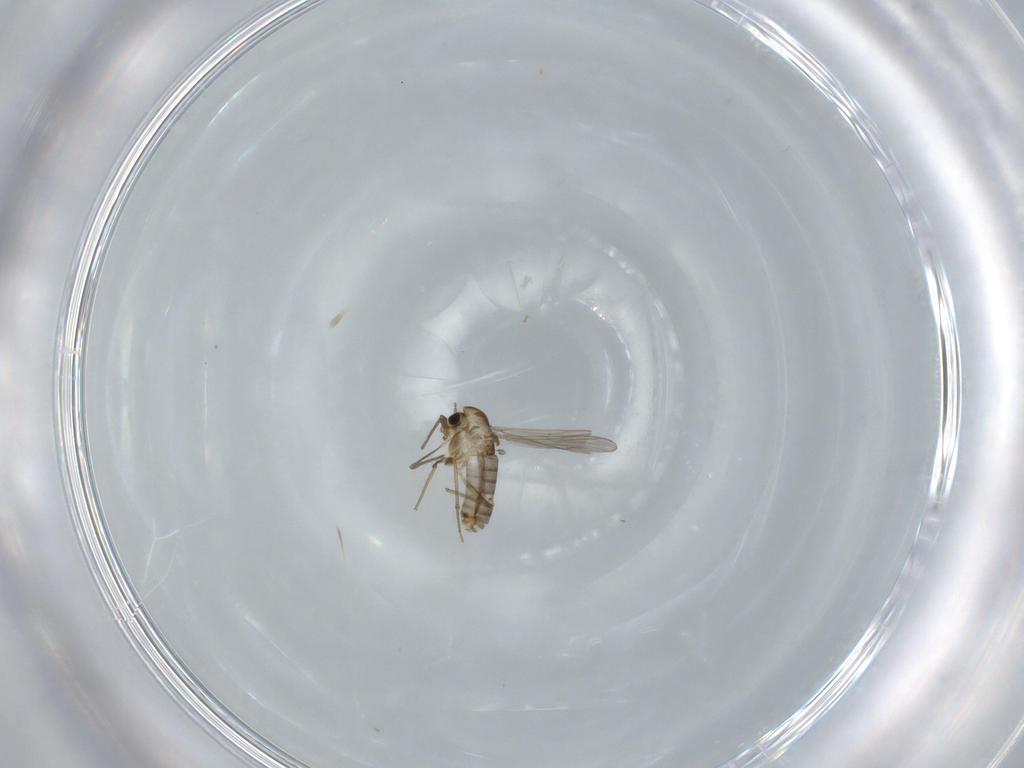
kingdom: Animalia
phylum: Arthropoda
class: Insecta
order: Diptera
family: Chironomidae
